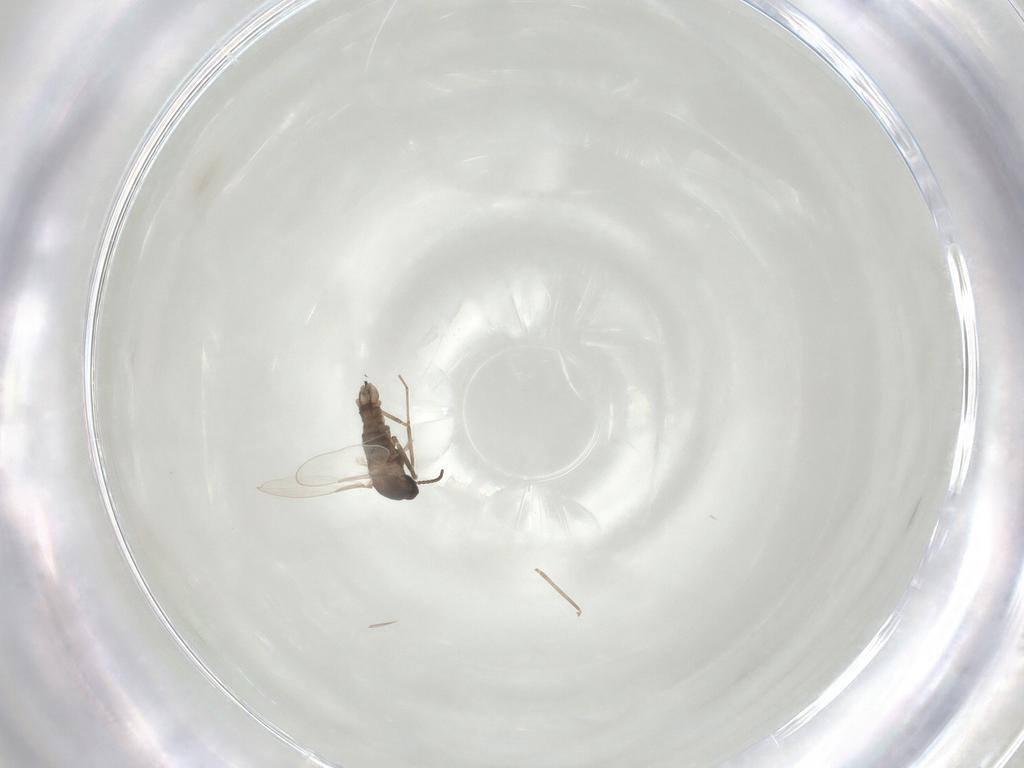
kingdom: Animalia
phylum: Arthropoda
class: Insecta
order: Diptera
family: Cecidomyiidae
